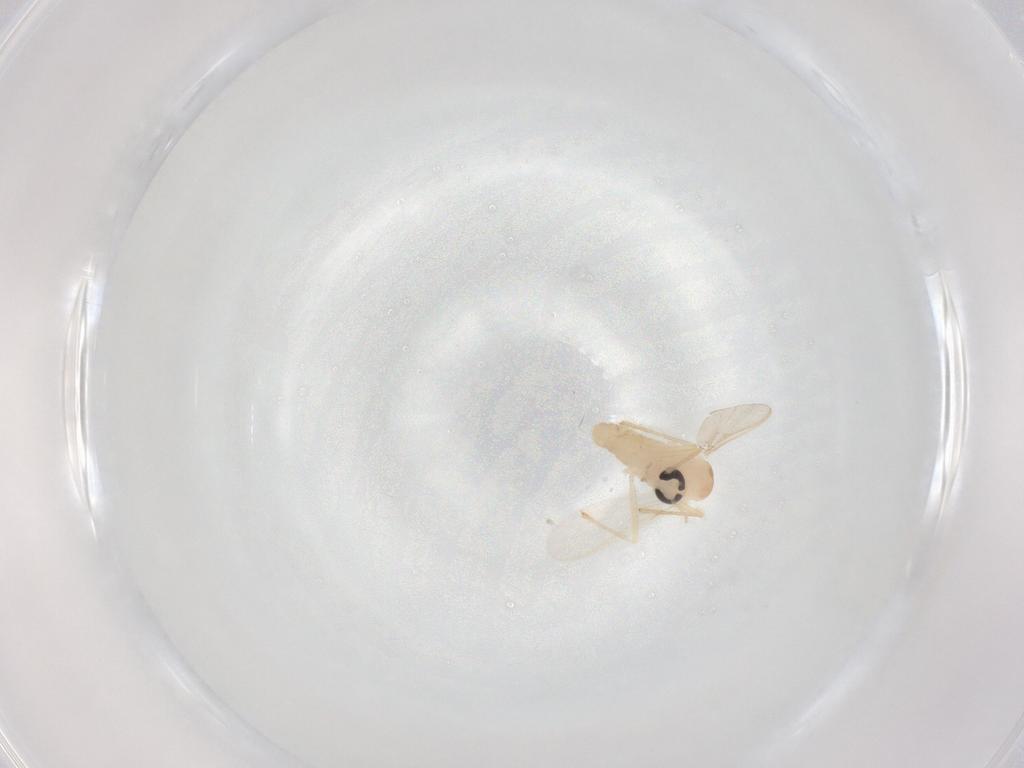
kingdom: Animalia
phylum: Arthropoda
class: Insecta
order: Diptera
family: Chironomidae
